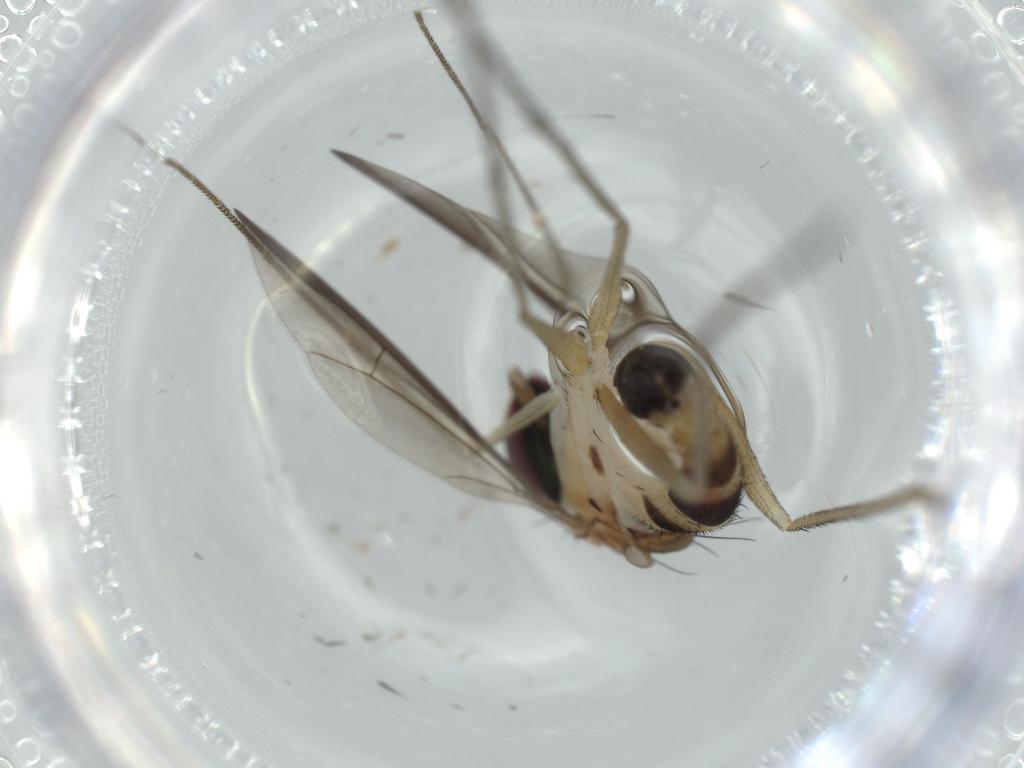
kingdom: Animalia
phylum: Arthropoda
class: Insecta
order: Diptera
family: Dolichopodidae
